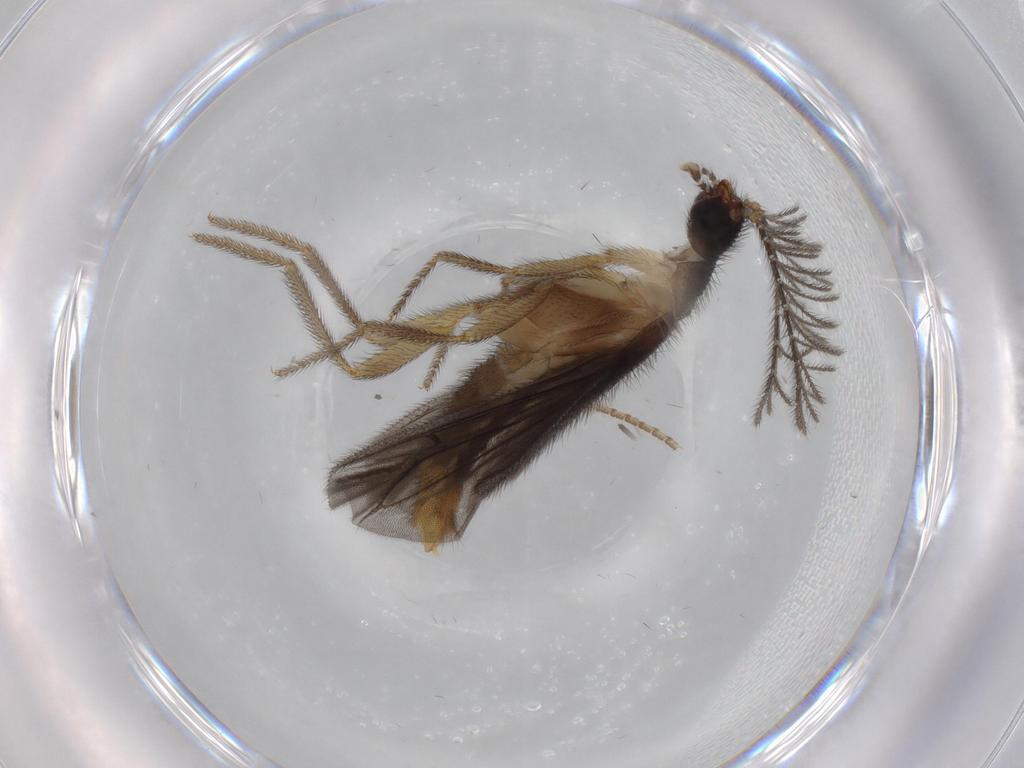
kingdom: Animalia
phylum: Arthropoda
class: Insecta
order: Coleoptera
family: Phengodidae
